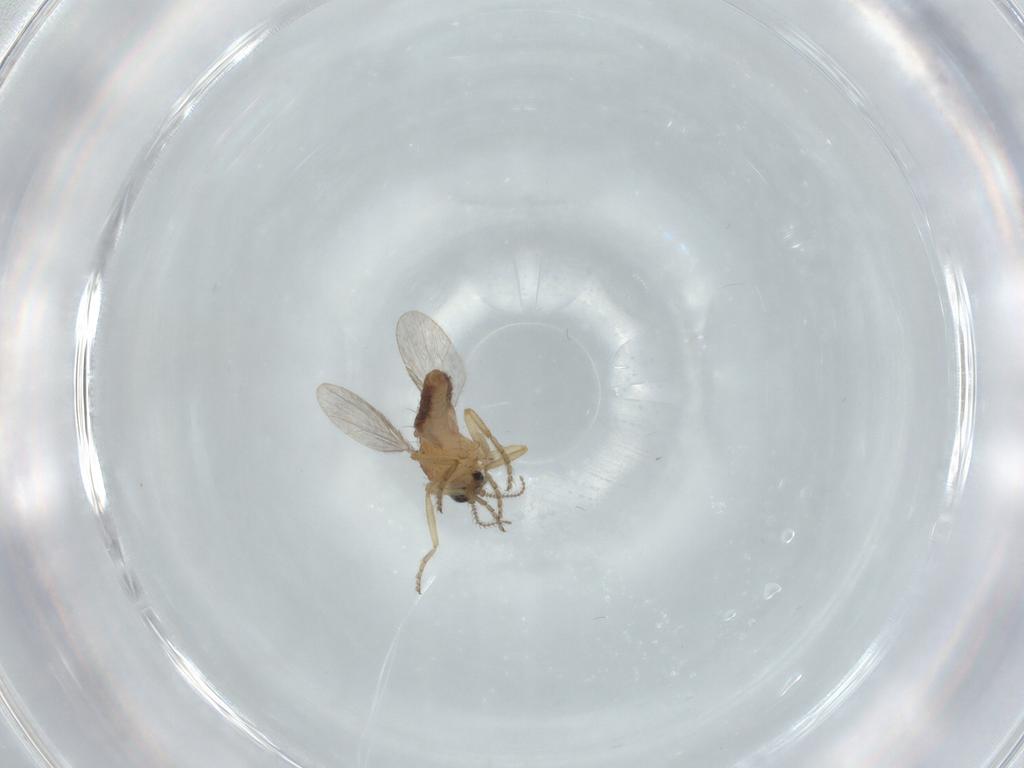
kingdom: Animalia
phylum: Arthropoda
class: Insecta
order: Diptera
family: Ceratopogonidae
